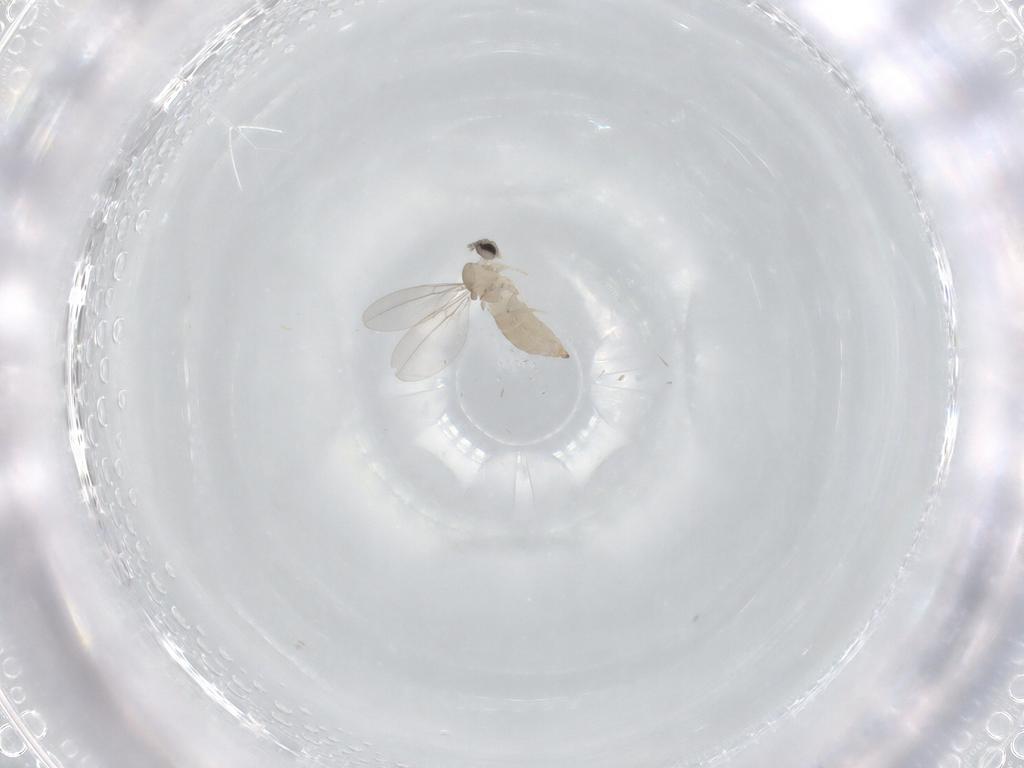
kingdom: Animalia
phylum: Arthropoda
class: Insecta
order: Diptera
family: Cecidomyiidae
